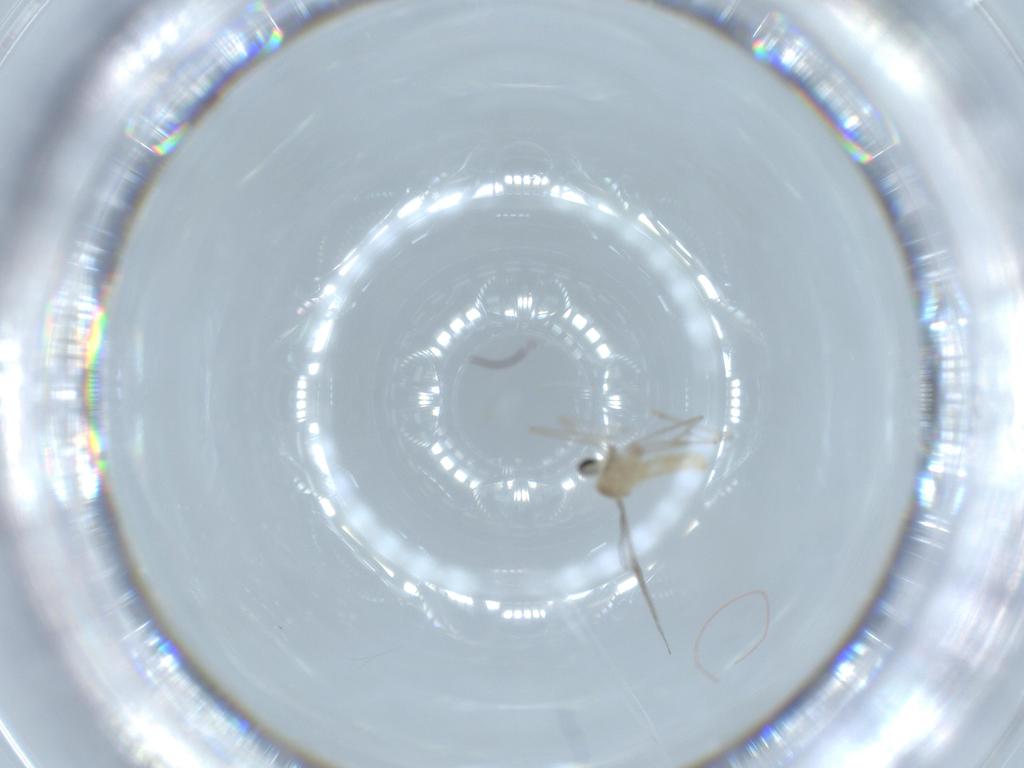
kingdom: Animalia
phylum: Arthropoda
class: Insecta
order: Diptera
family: Cecidomyiidae
